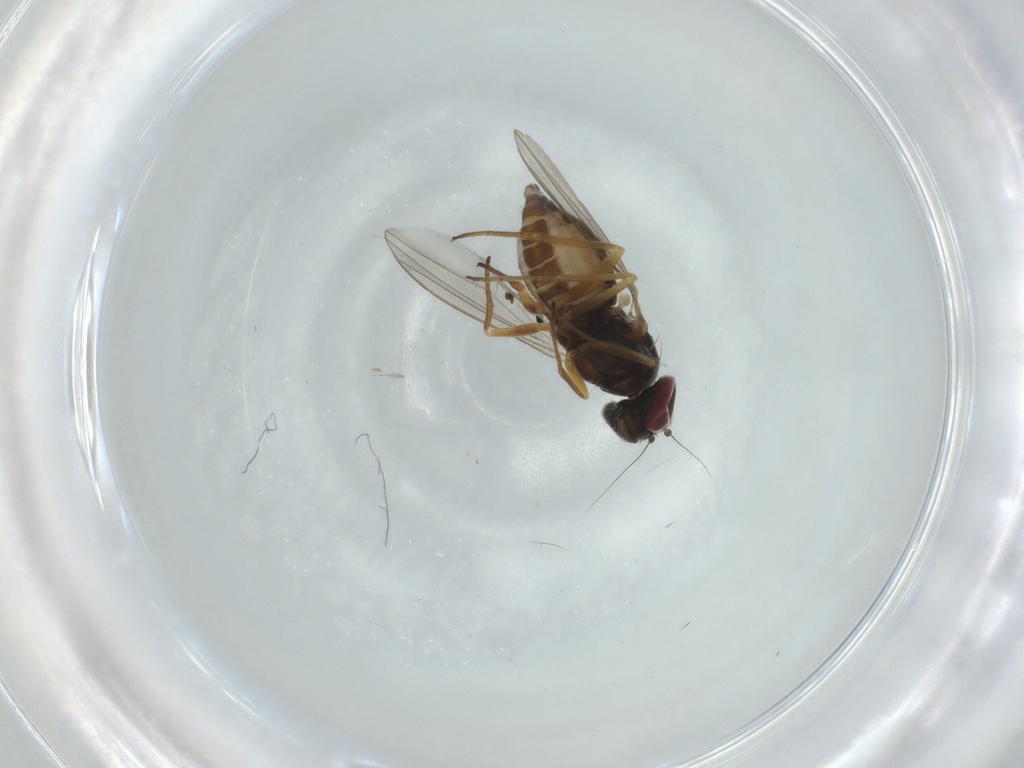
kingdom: Animalia
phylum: Arthropoda
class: Insecta
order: Diptera
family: Dolichopodidae
